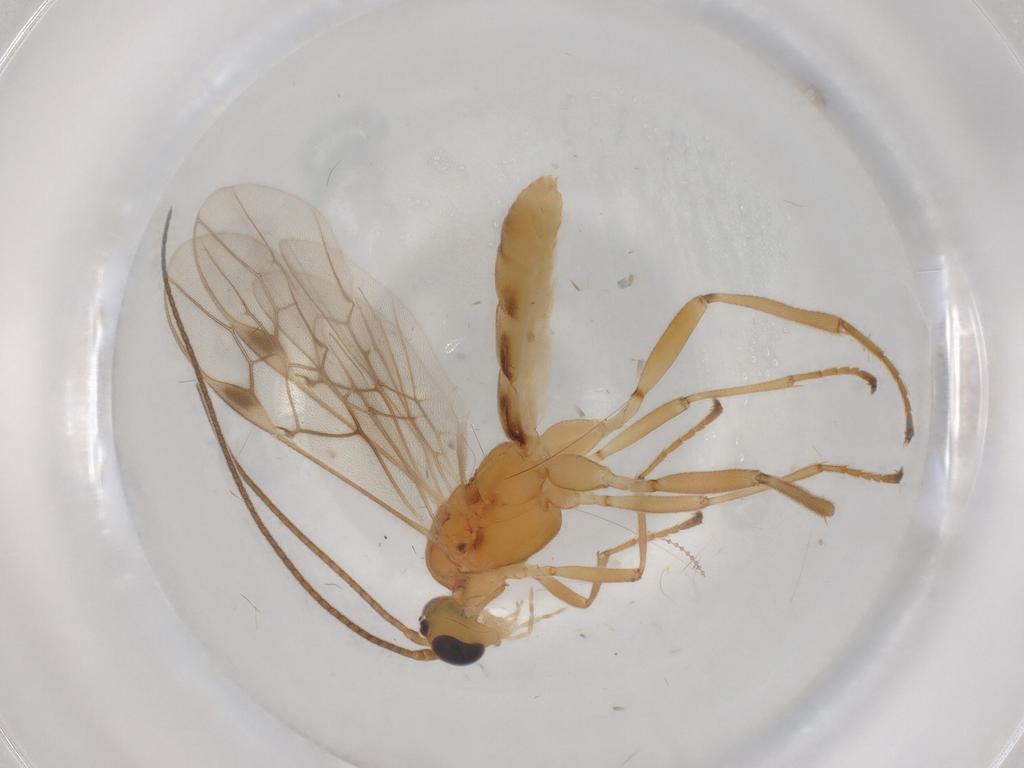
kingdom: Animalia
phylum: Arthropoda
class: Insecta
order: Hymenoptera
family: Scelionidae
